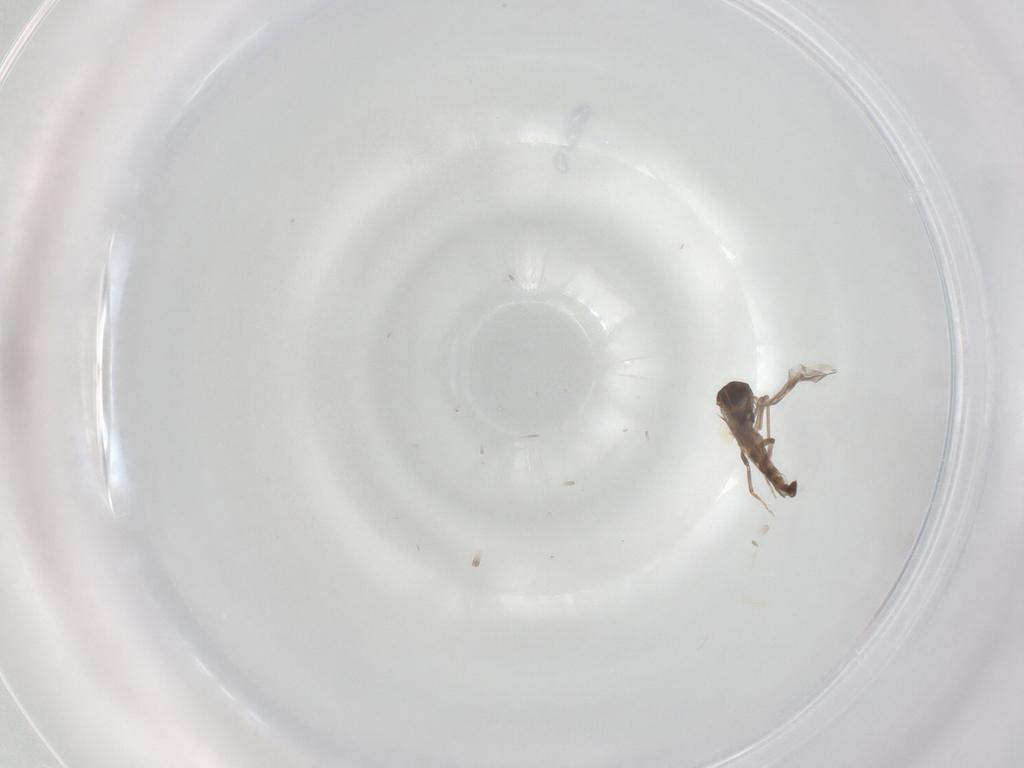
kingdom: Animalia
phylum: Arthropoda
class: Insecta
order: Diptera
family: Ceratopogonidae
